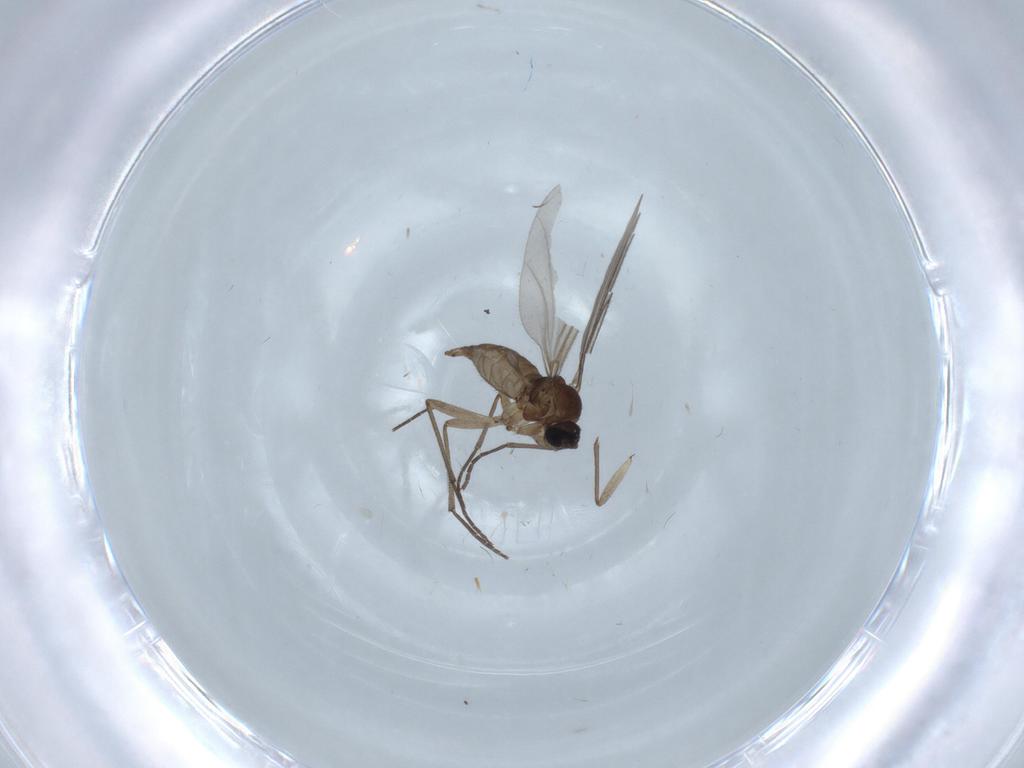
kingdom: Animalia
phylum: Arthropoda
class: Insecta
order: Diptera
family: Sciaridae
